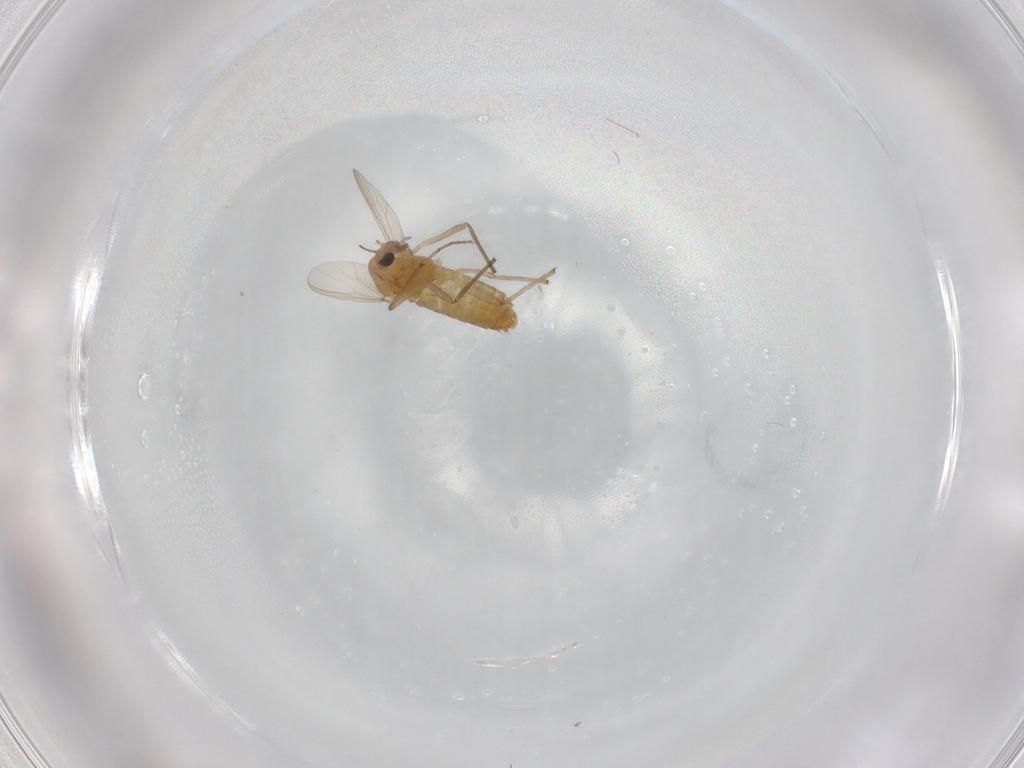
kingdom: Animalia
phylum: Arthropoda
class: Insecta
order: Diptera
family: Chironomidae
